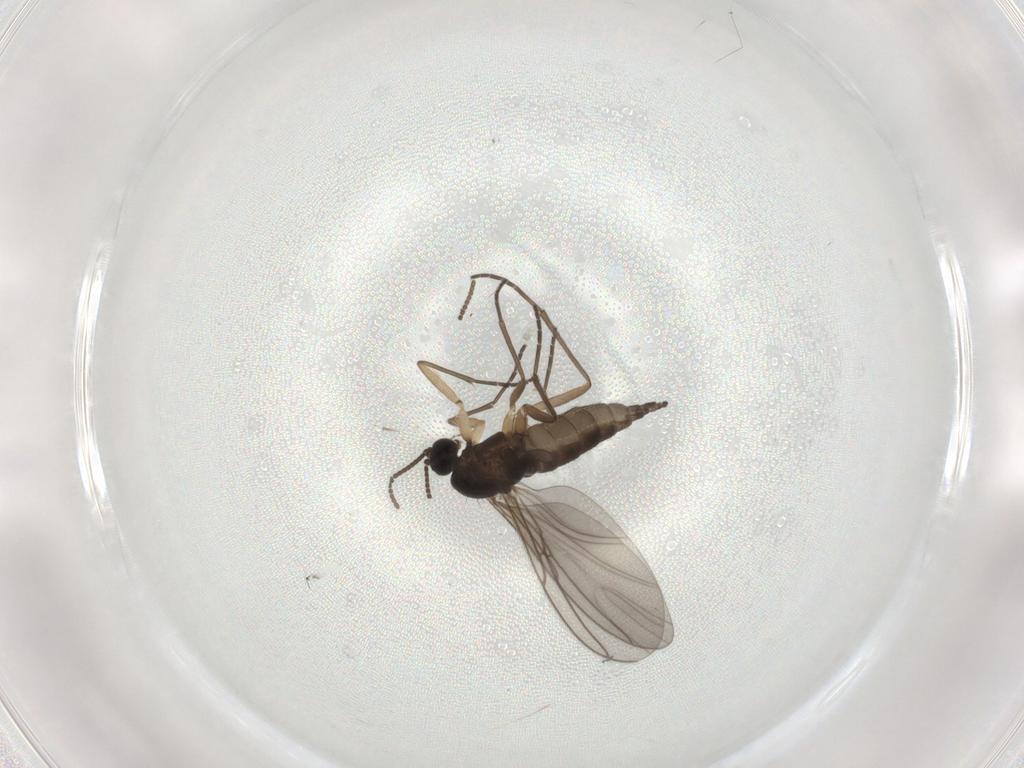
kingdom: Animalia
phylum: Arthropoda
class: Insecta
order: Diptera
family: Sciaridae
